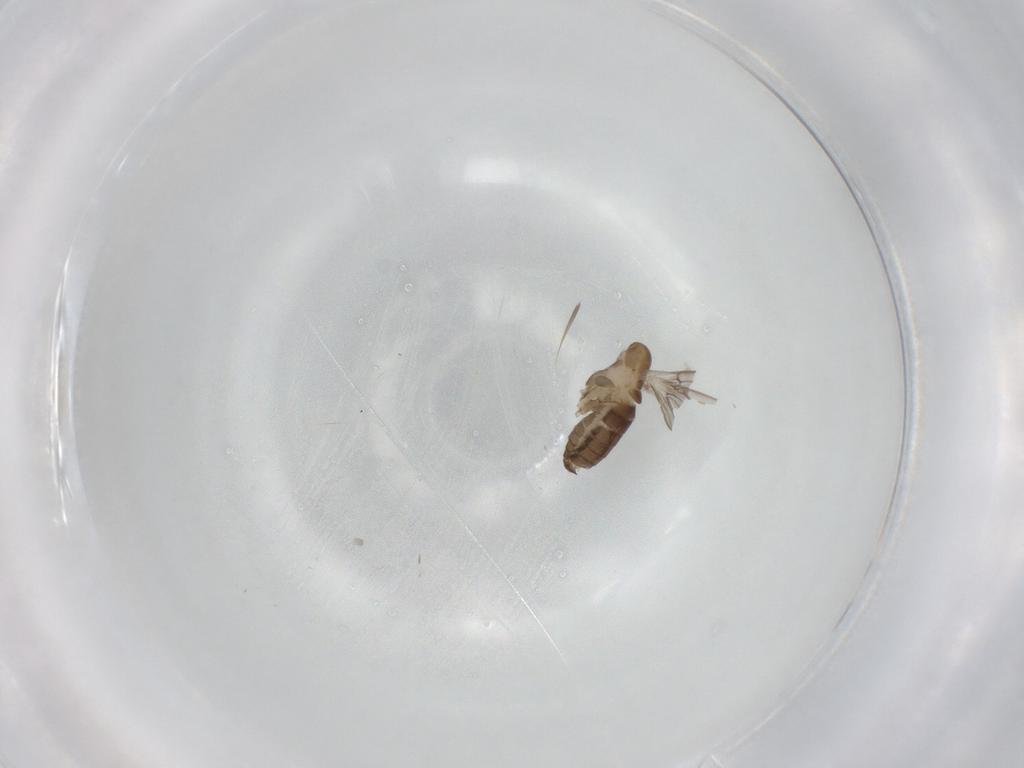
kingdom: Animalia
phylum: Arthropoda
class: Insecta
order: Diptera
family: Psychodidae
